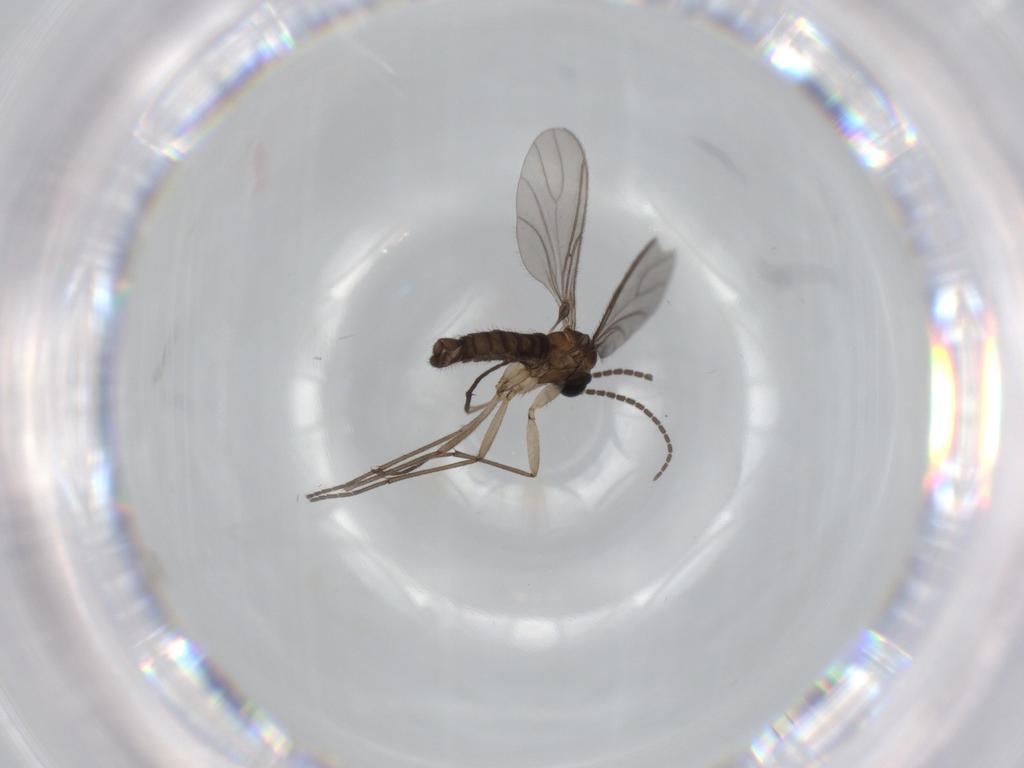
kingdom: Animalia
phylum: Arthropoda
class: Insecta
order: Diptera
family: Sciaridae
